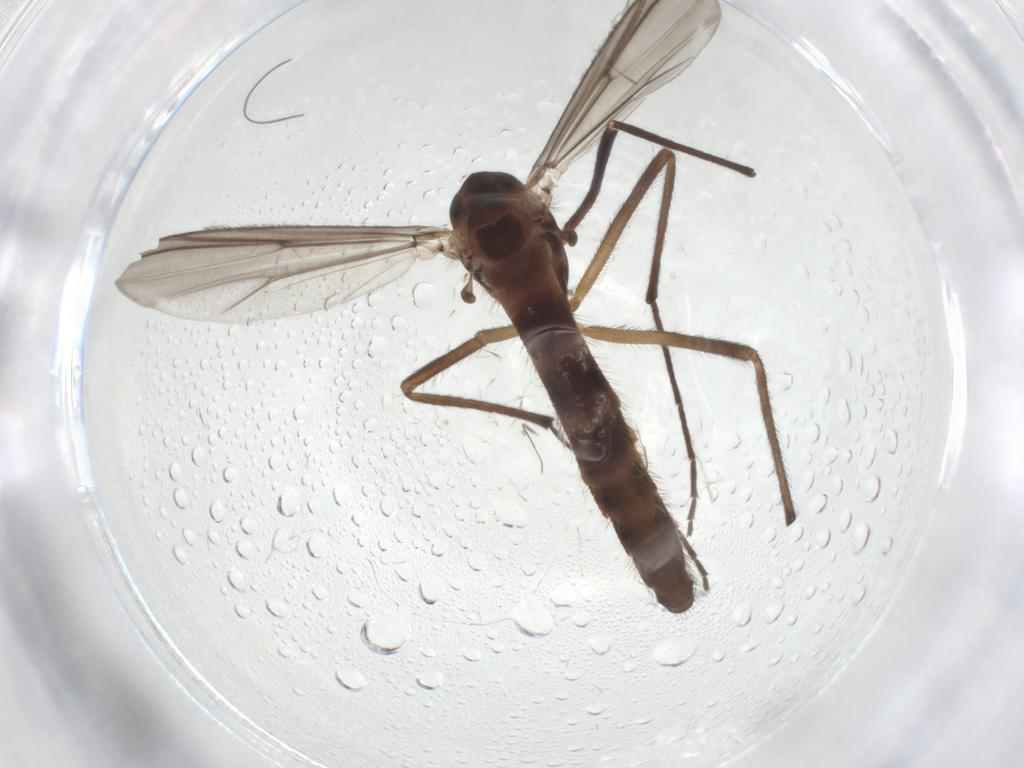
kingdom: Animalia
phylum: Arthropoda
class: Insecta
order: Diptera
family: Chironomidae
